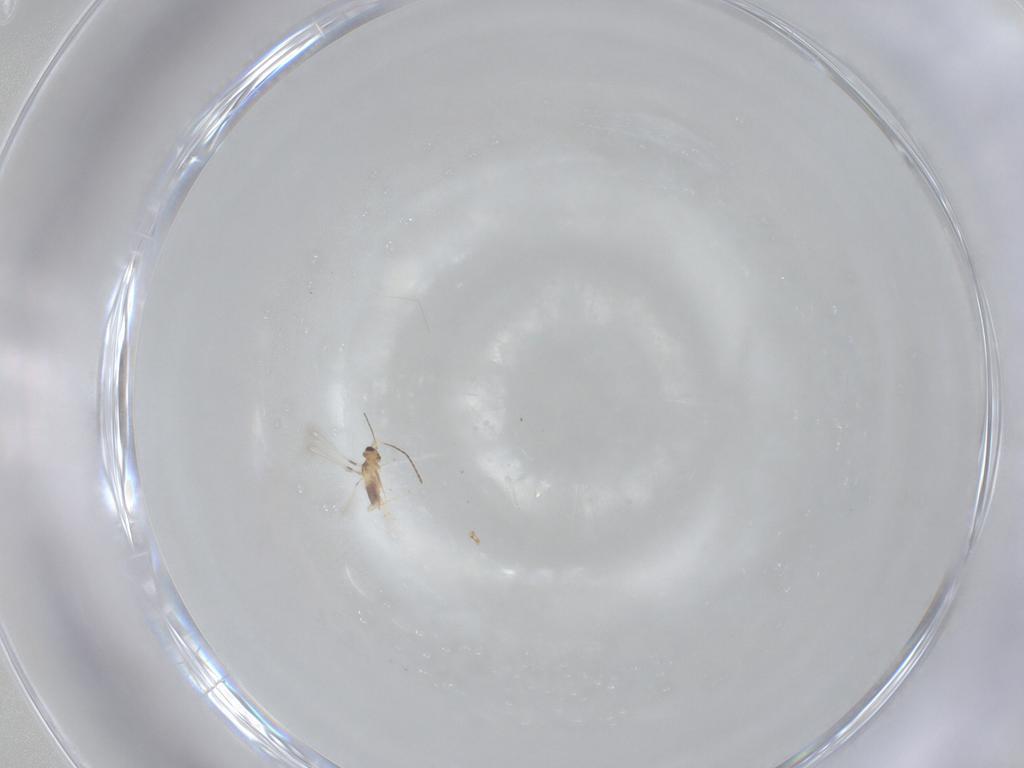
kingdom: Animalia
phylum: Arthropoda
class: Insecta
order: Hymenoptera
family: Mymaridae
